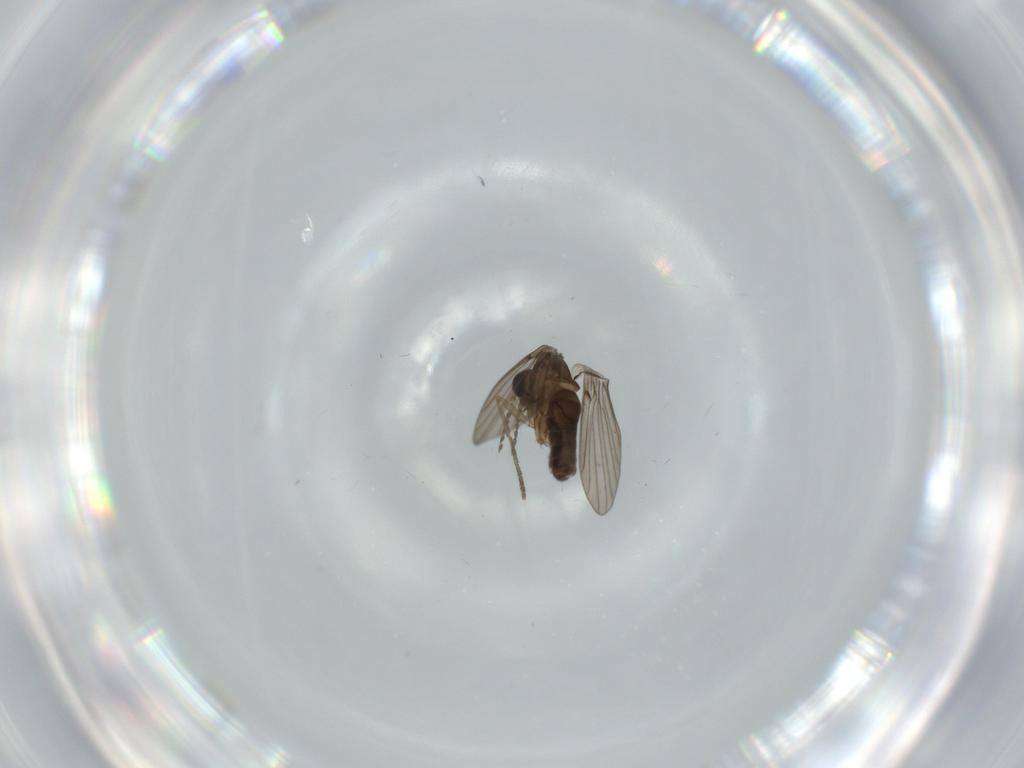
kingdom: Animalia
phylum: Arthropoda
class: Insecta
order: Diptera
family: Psychodidae
